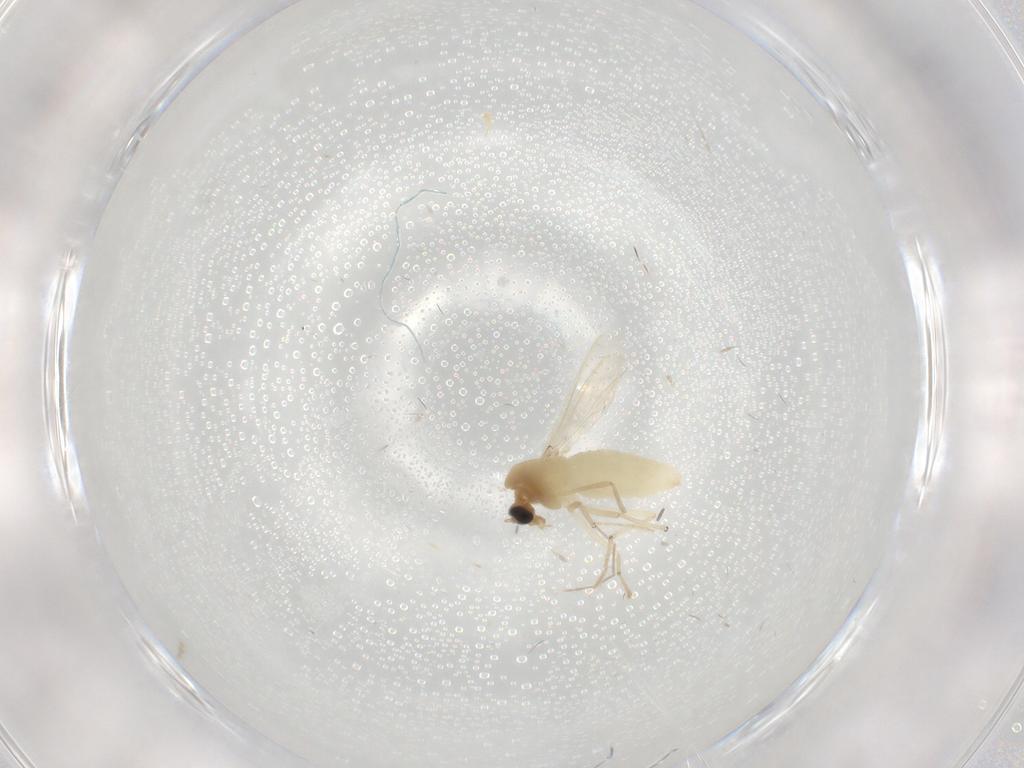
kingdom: Animalia
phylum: Arthropoda
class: Insecta
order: Diptera
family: Chironomidae
